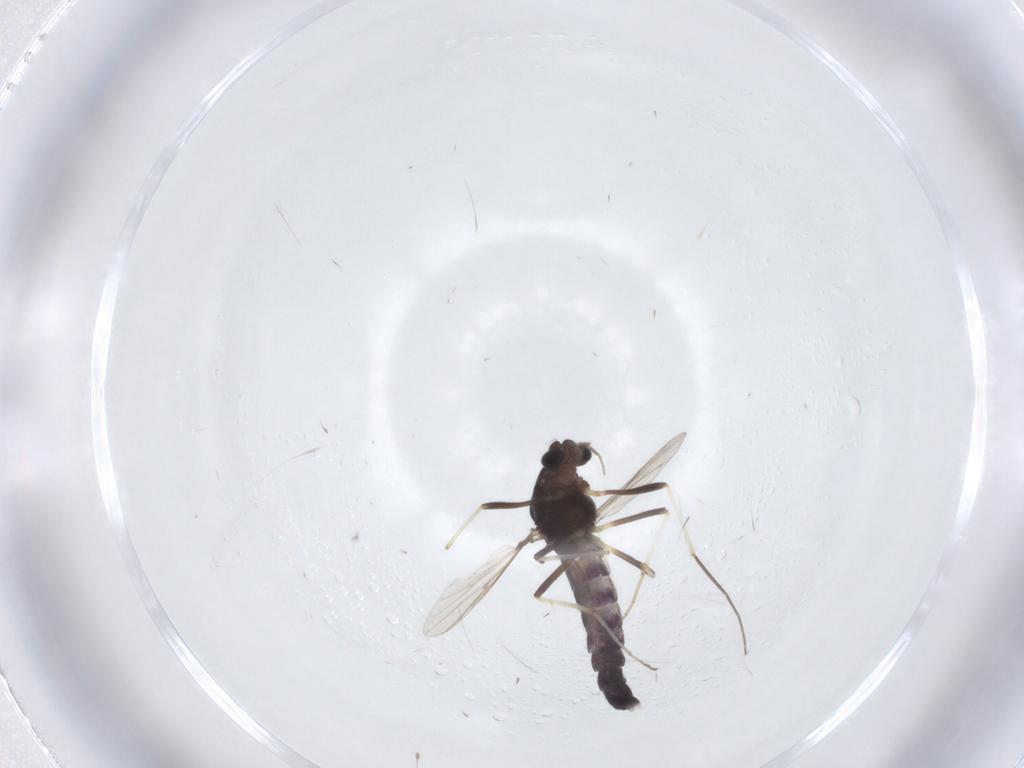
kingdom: Animalia
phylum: Arthropoda
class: Insecta
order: Diptera
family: Chironomidae
